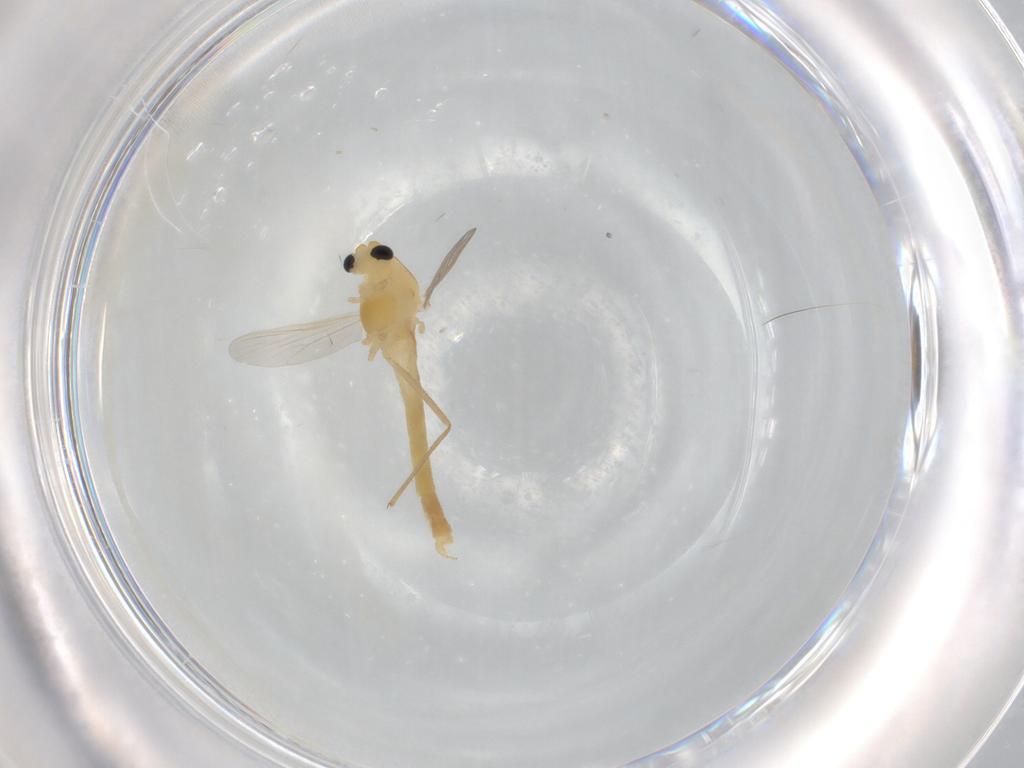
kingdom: Animalia
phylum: Arthropoda
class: Insecta
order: Diptera
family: Chironomidae
